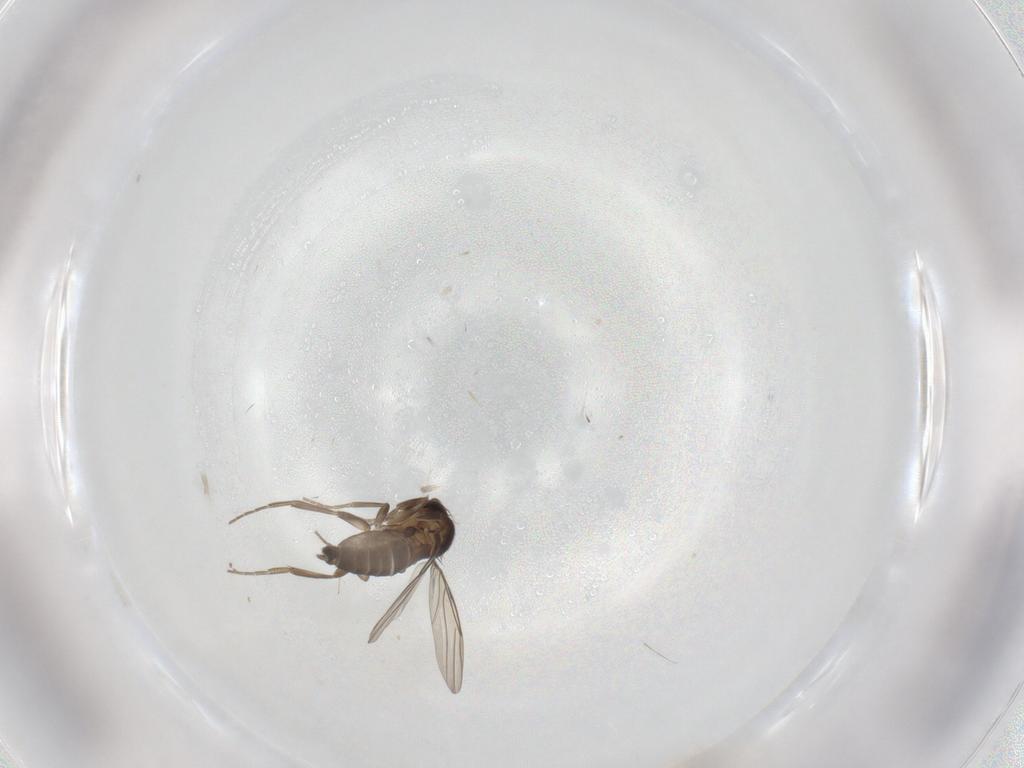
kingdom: Animalia
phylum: Arthropoda
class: Insecta
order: Diptera
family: Phoridae
